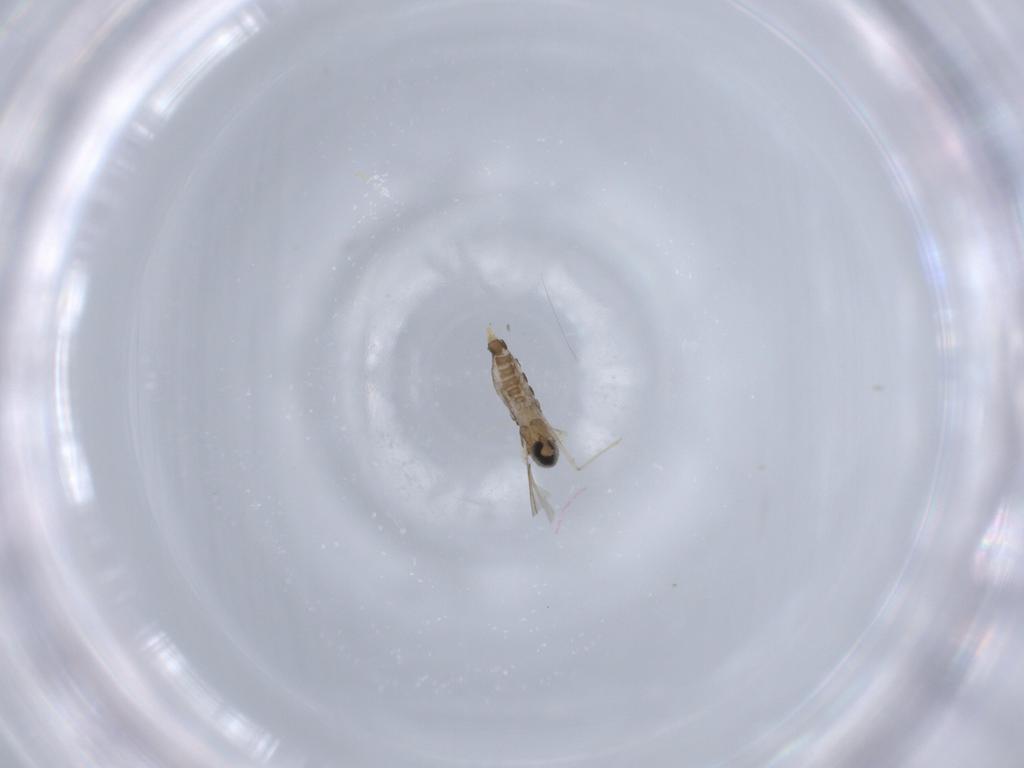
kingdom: Animalia
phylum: Arthropoda
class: Insecta
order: Diptera
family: Cecidomyiidae
